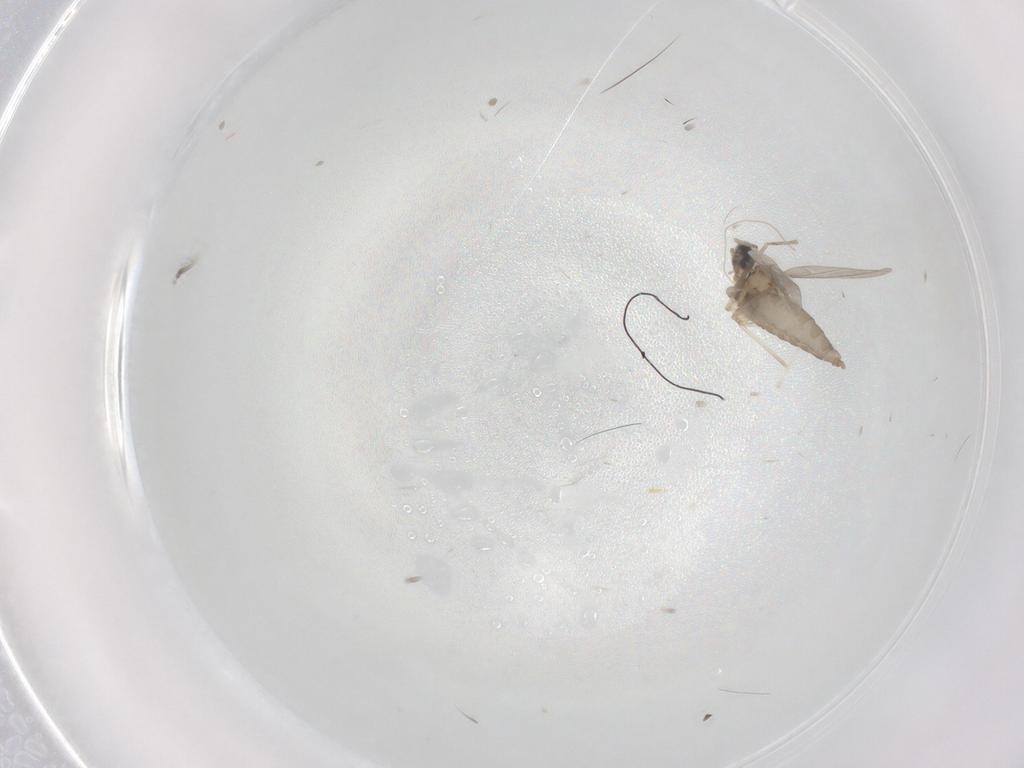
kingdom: Animalia
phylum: Arthropoda
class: Insecta
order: Diptera
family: Cecidomyiidae
